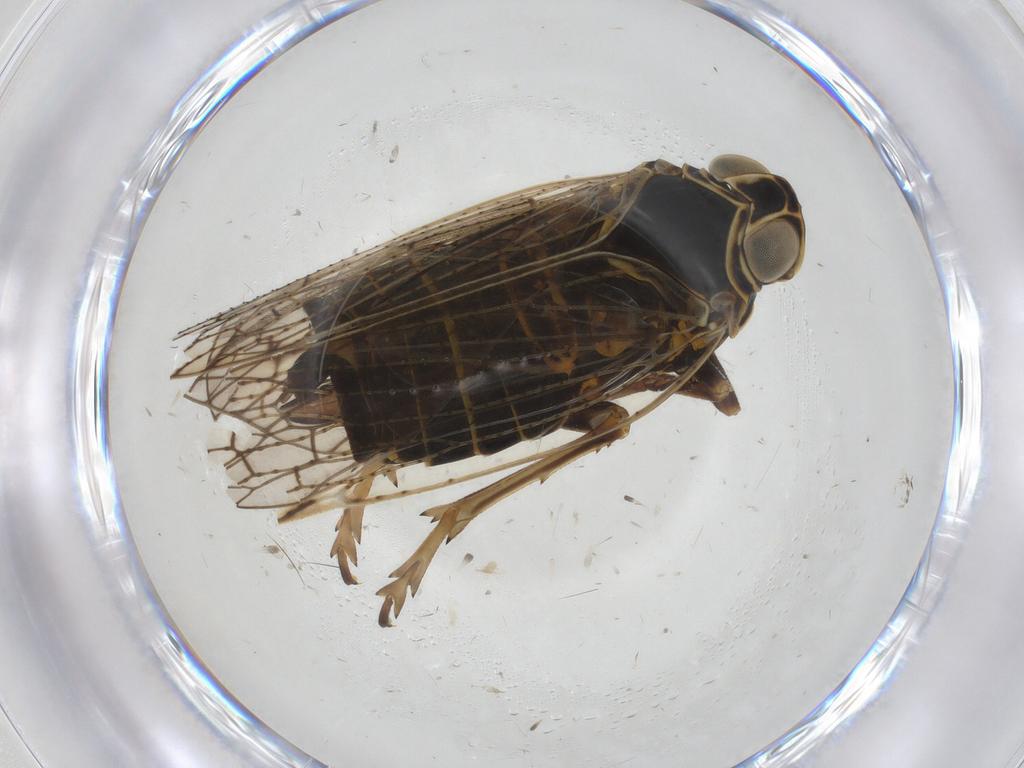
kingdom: Animalia
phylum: Arthropoda
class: Insecta
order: Hemiptera
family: Cixiidae
